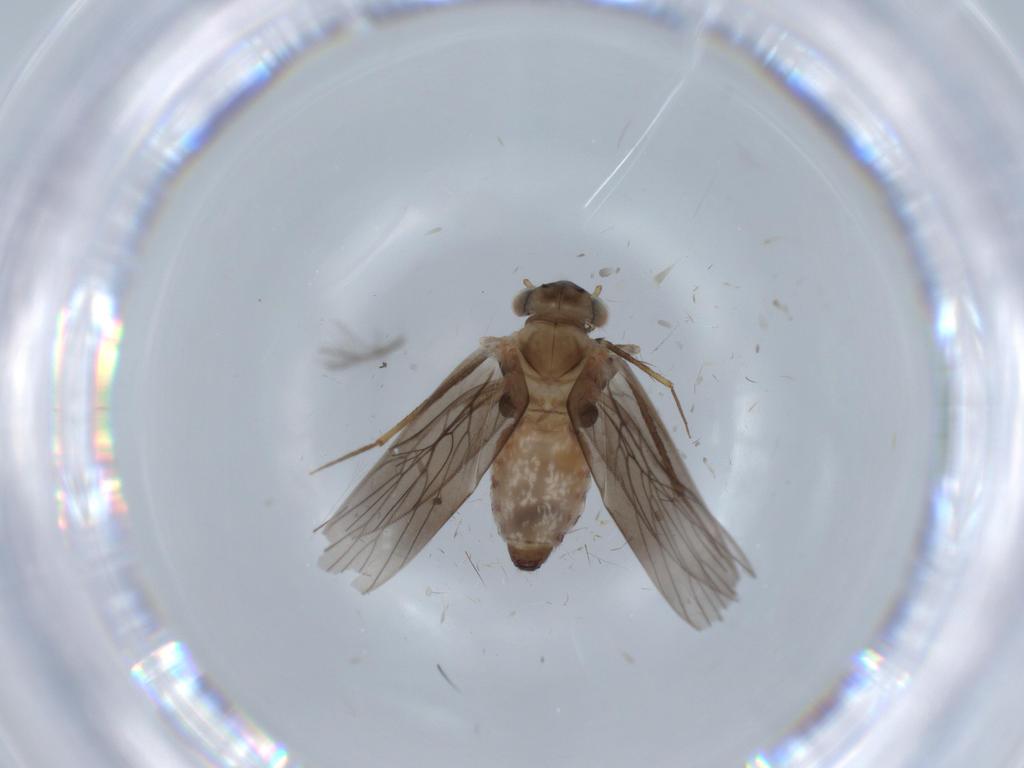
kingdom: Animalia
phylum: Arthropoda
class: Insecta
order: Psocodea
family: Lepidopsocidae
